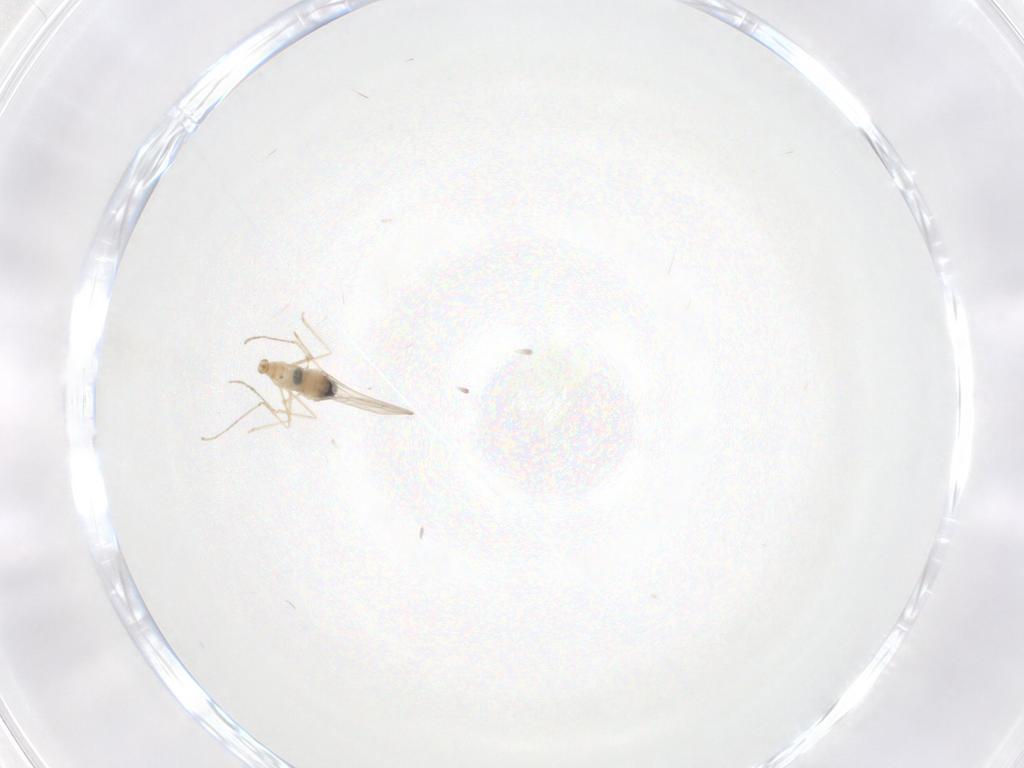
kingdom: Animalia
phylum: Arthropoda
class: Insecta
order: Diptera
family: Cecidomyiidae
